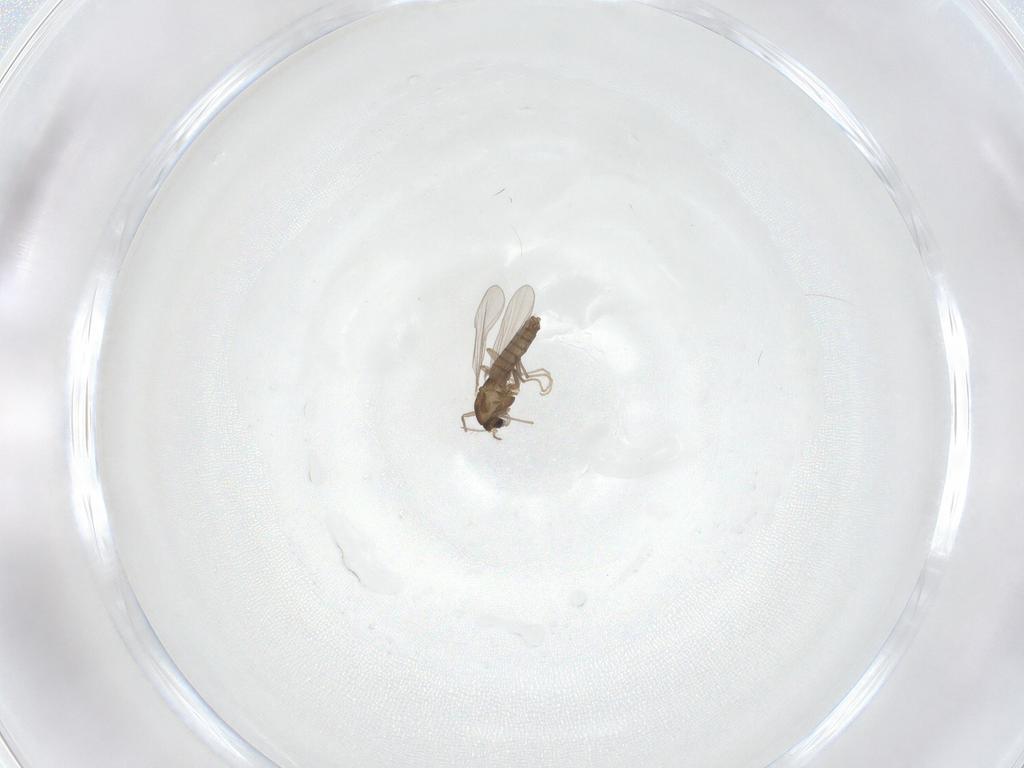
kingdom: Animalia
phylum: Arthropoda
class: Insecta
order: Diptera
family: Chironomidae
